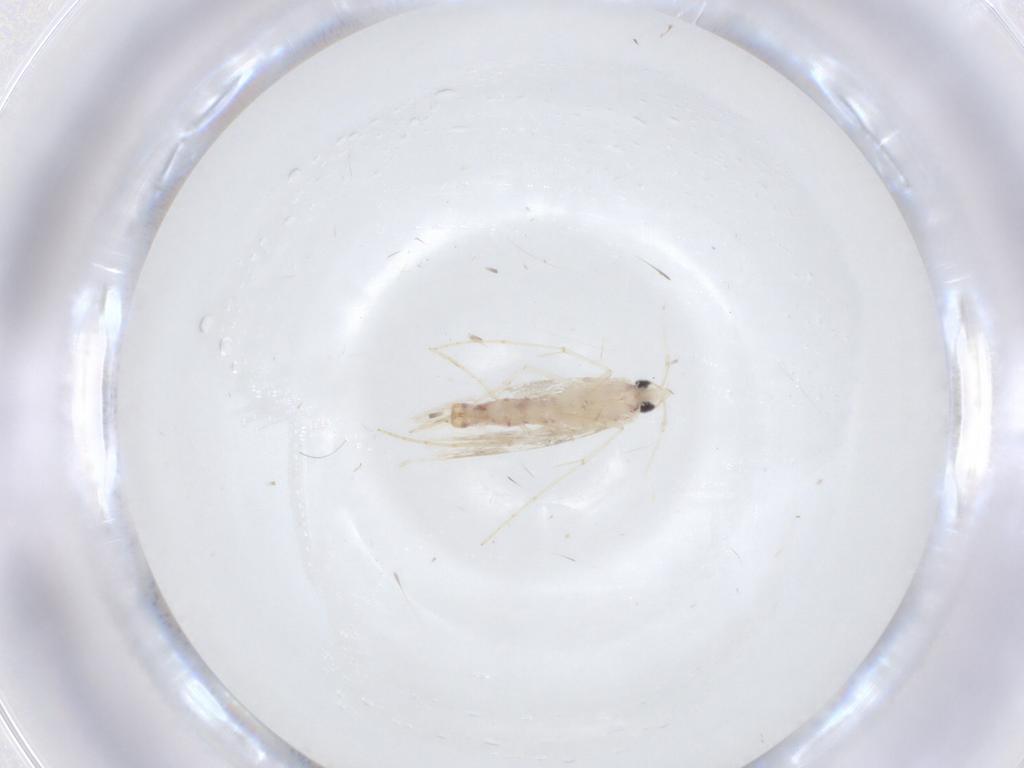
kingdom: Animalia
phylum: Arthropoda
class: Insecta
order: Lepidoptera
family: Tineidae
